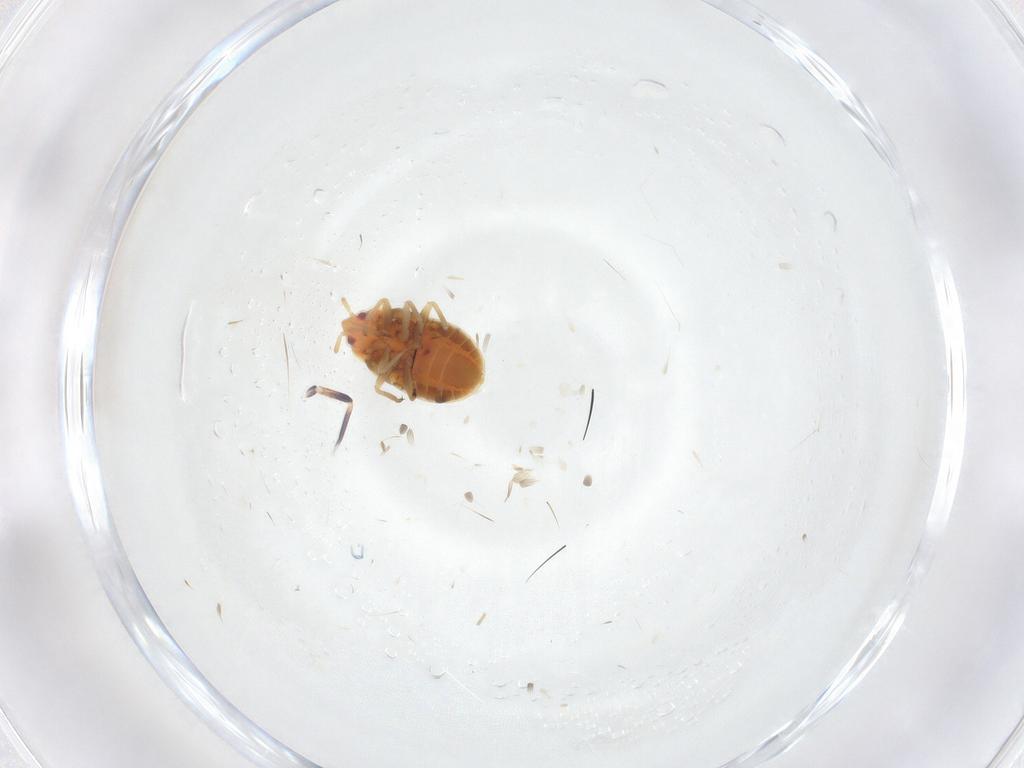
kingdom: Animalia
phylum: Arthropoda
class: Insecta
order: Hemiptera
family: Anthocoridae
